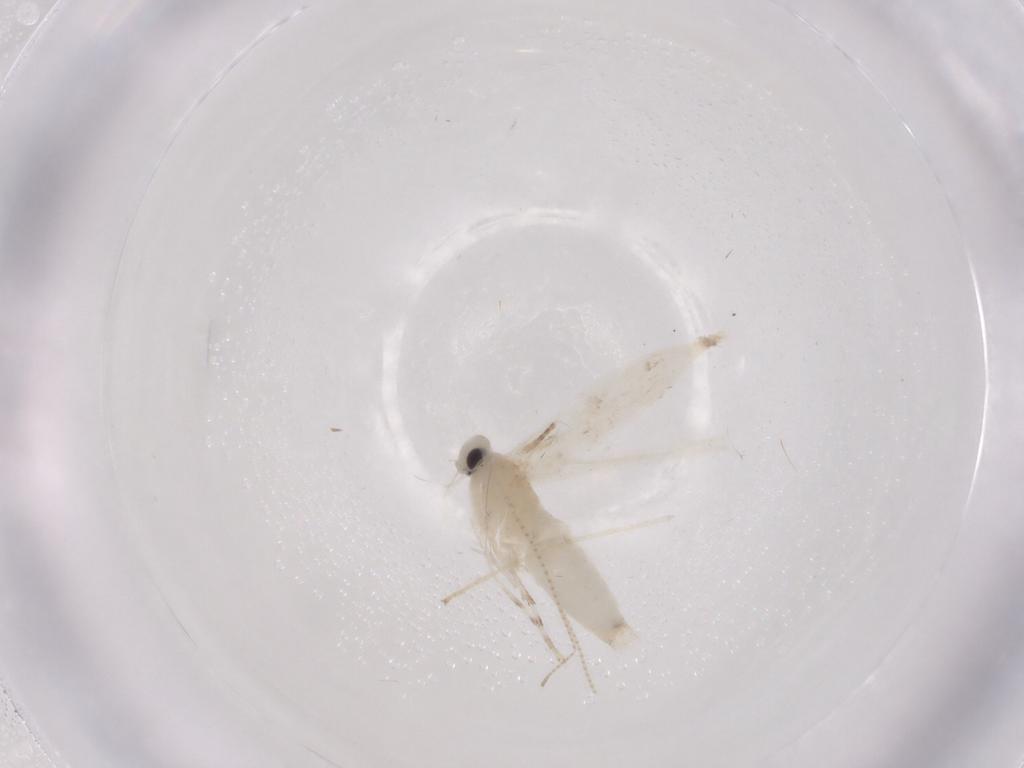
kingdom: Animalia
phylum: Arthropoda
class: Insecta
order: Lepidoptera
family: Gracillariidae
